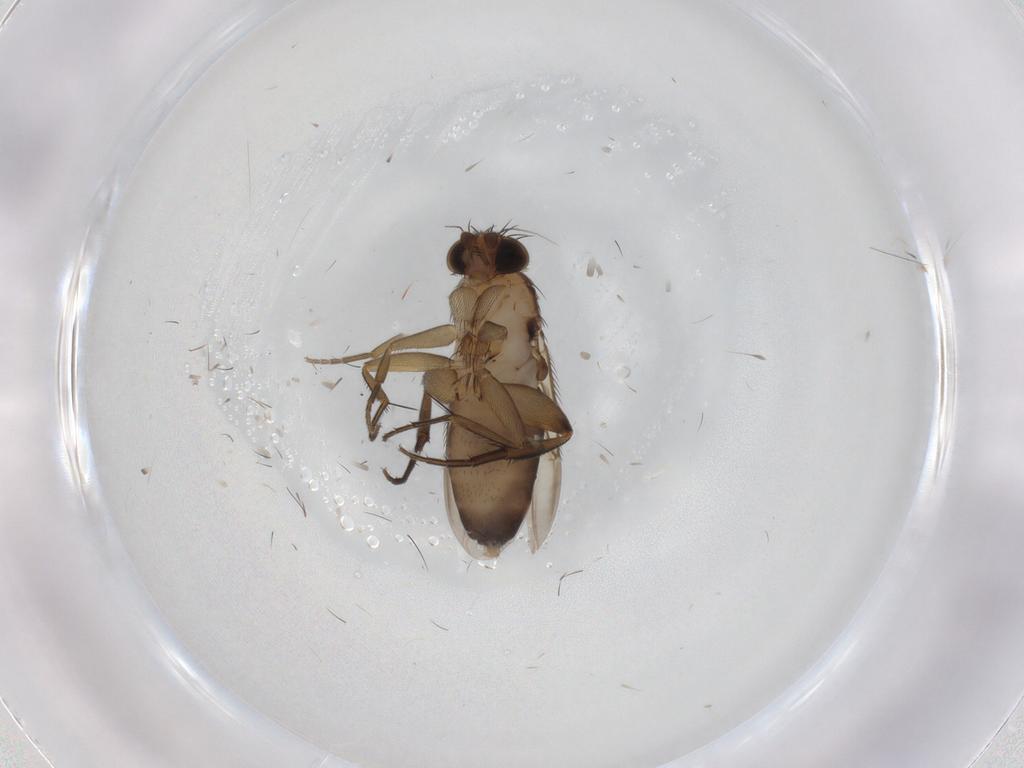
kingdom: Animalia
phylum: Arthropoda
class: Insecta
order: Diptera
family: Phoridae
